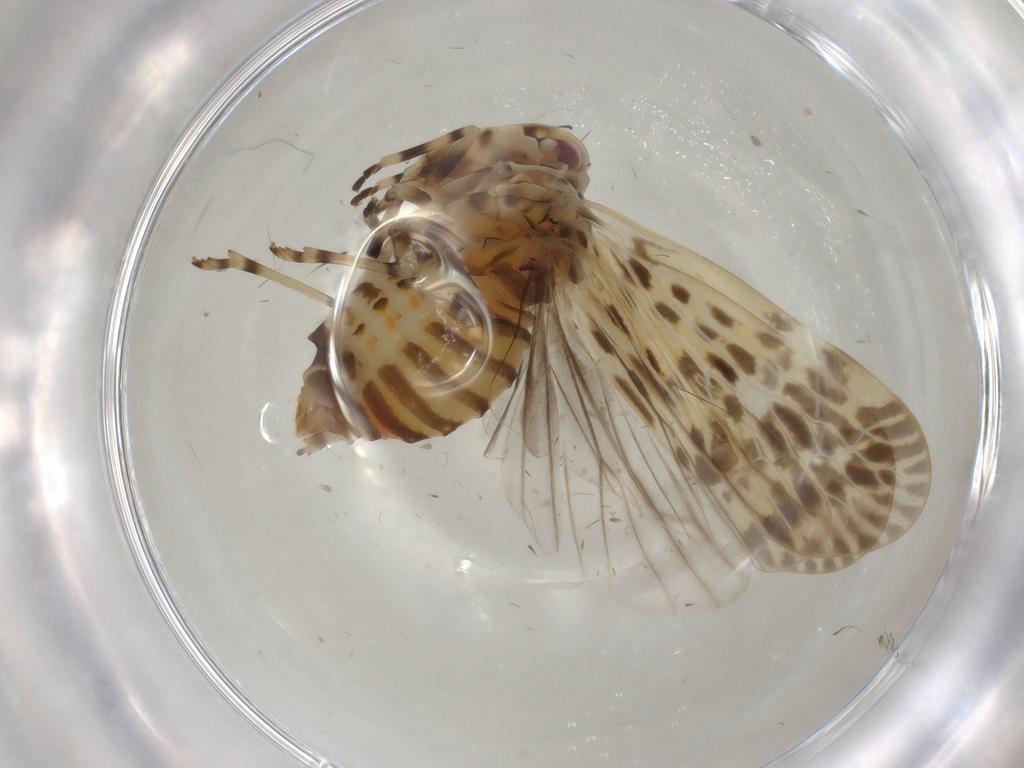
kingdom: Animalia
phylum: Arthropoda
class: Insecta
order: Hemiptera
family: Derbidae
